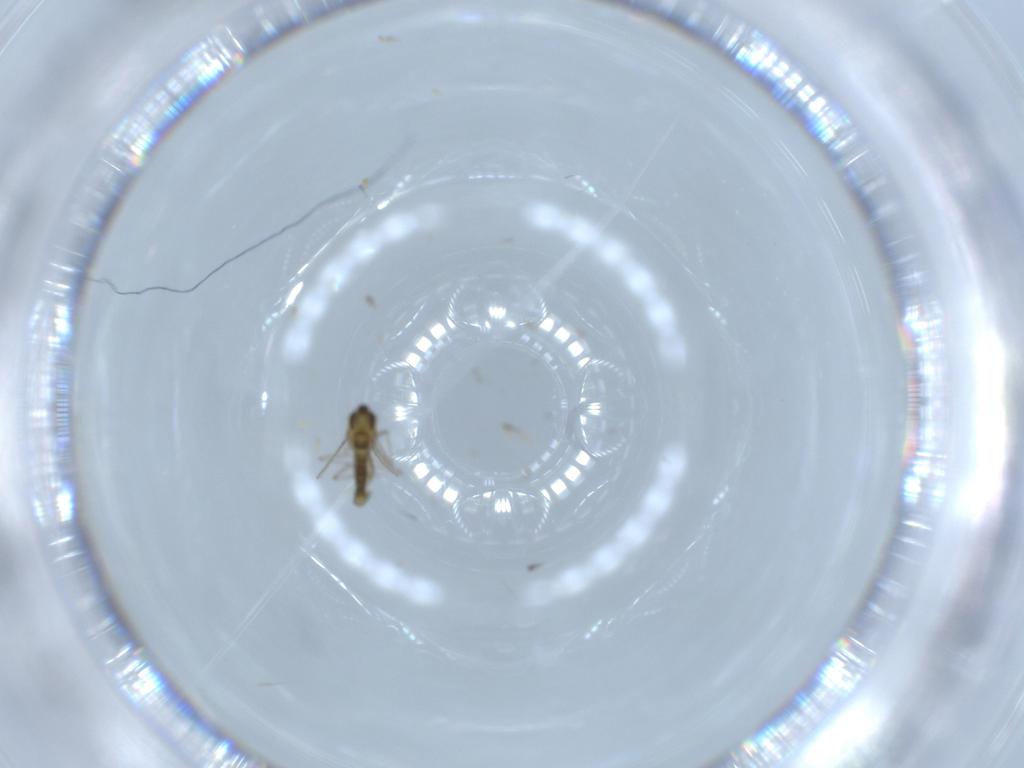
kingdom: Animalia
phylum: Arthropoda
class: Insecta
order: Diptera
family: Chironomidae
